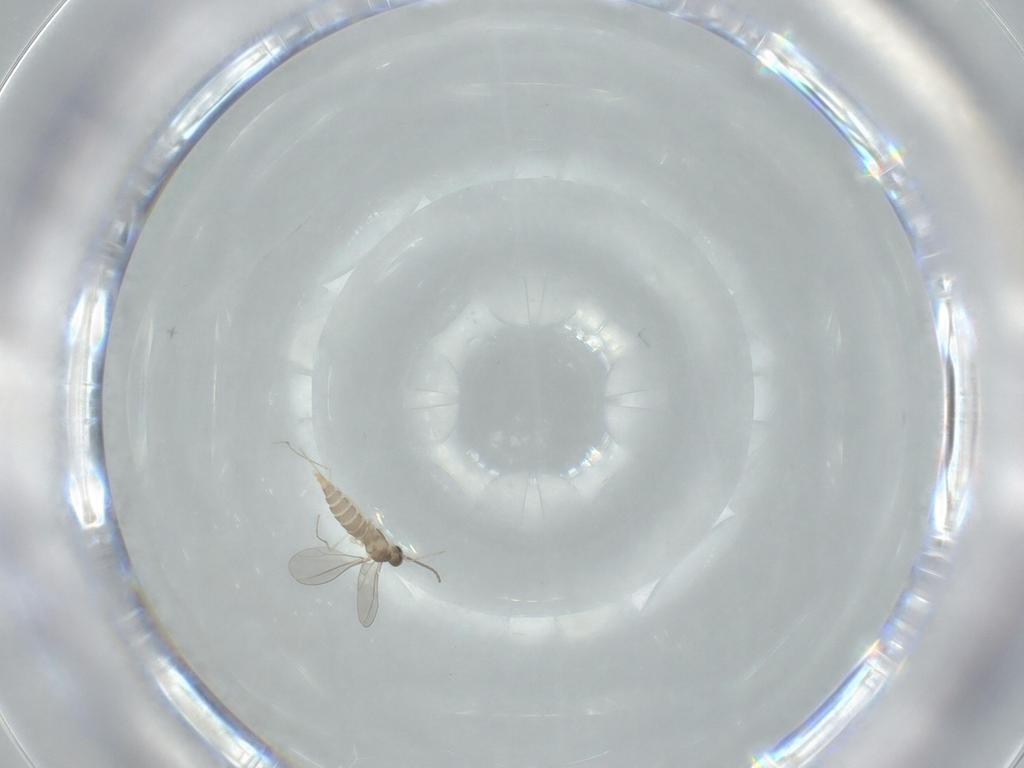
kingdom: Animalia
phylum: Arthropoda
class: Insecta
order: Diptera
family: Cecidomyiidae
